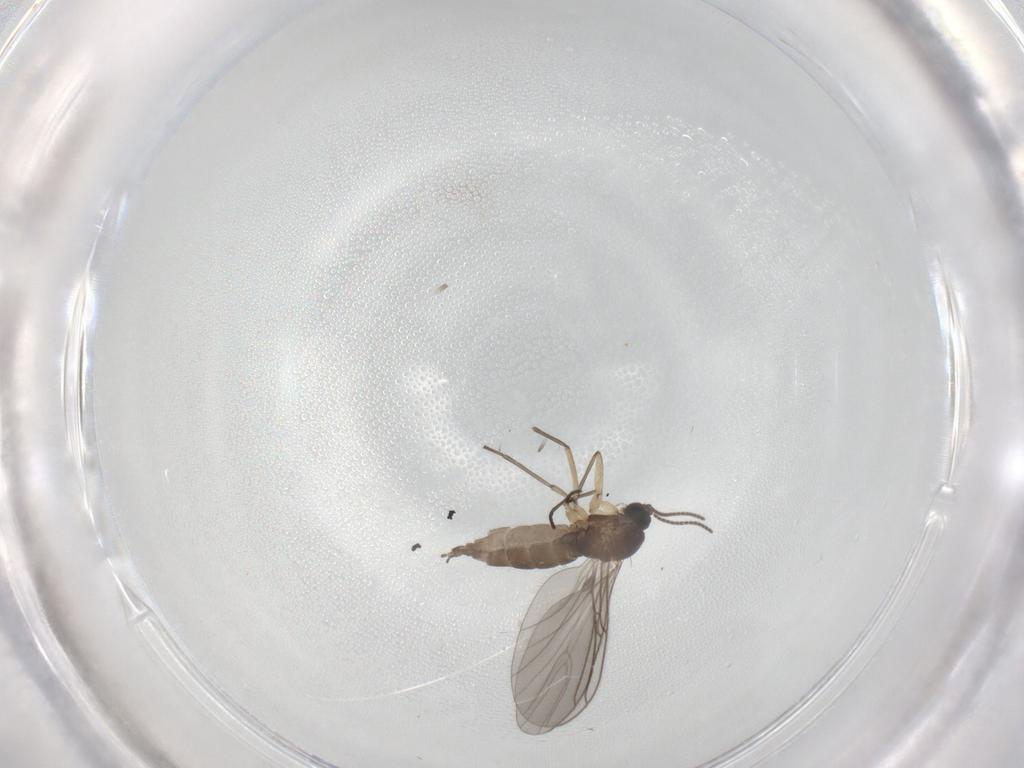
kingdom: Animalia
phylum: Arthropoda
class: Insecta
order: Diptera
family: Sciaridae
